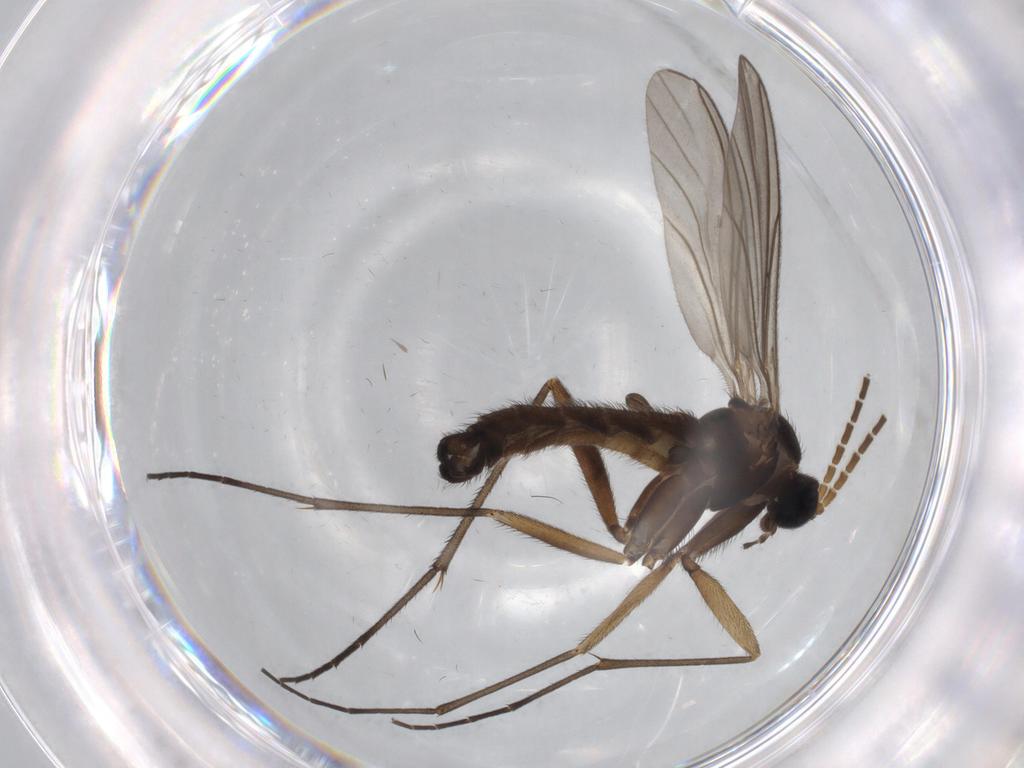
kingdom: Animalia
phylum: Arthropoda
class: Insecta
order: Diptera
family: Sciaridae
